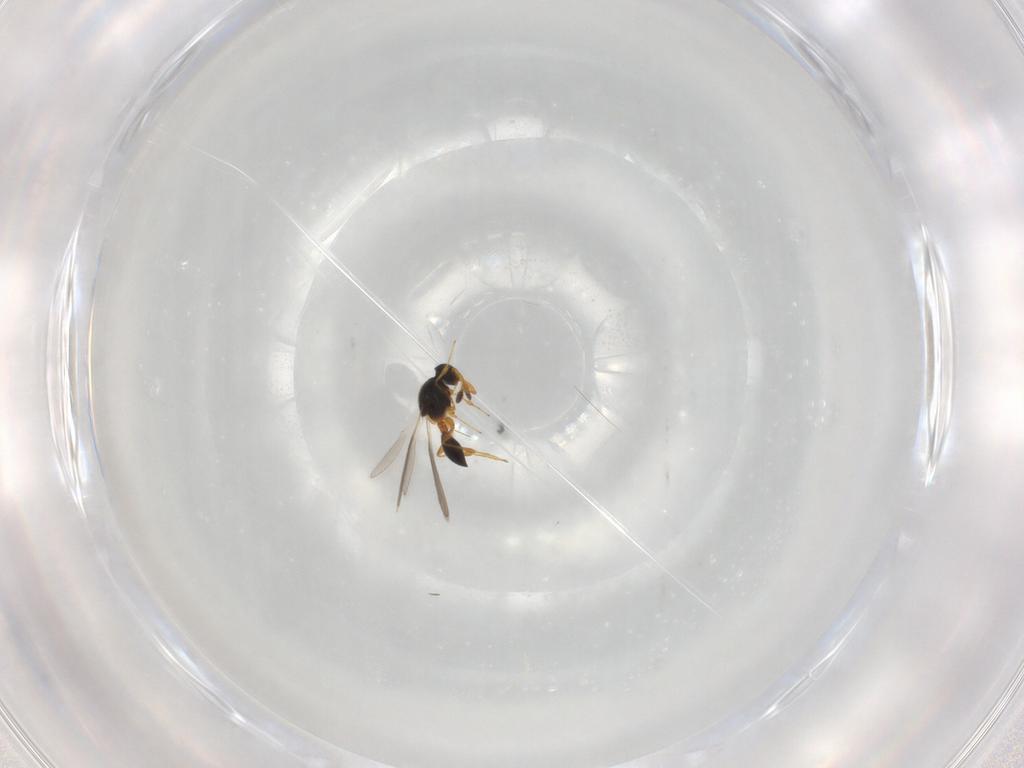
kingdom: Animalia
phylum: Arthropoda
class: Insecta
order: Hymenoptera
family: Platygastridae
